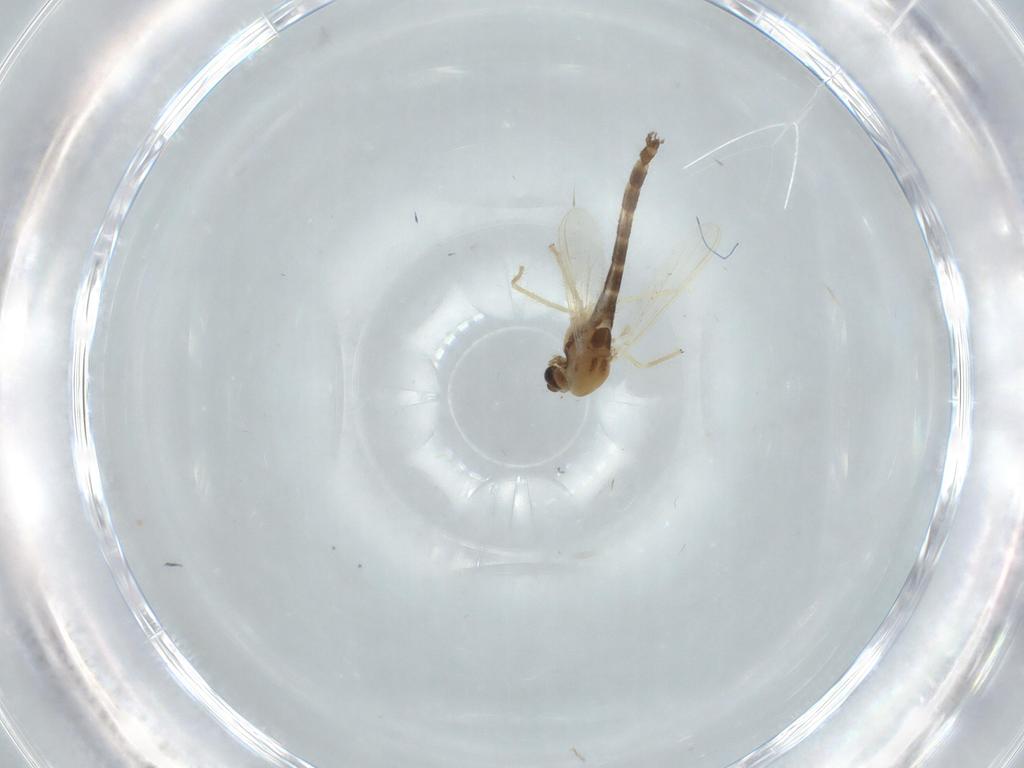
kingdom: Animalia
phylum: Arthropoda
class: Insecta
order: Diptera
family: Chironomidae
